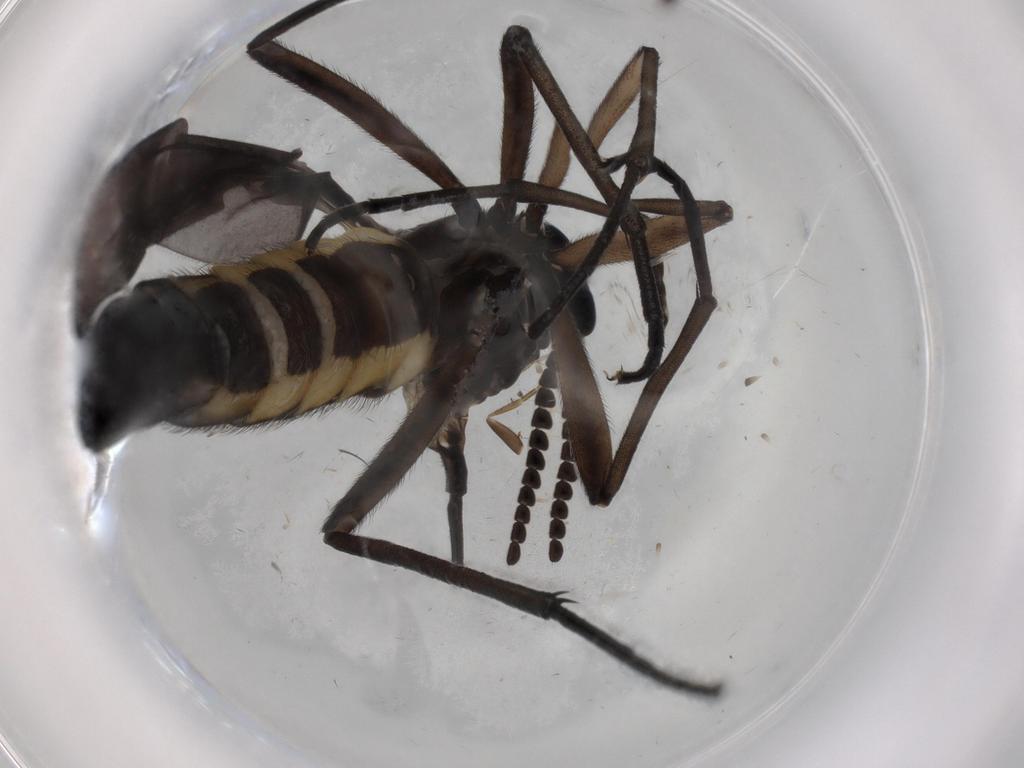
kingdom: Animalia
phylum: Arthropoda
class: Insecta
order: Diptera
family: Sciaridae
